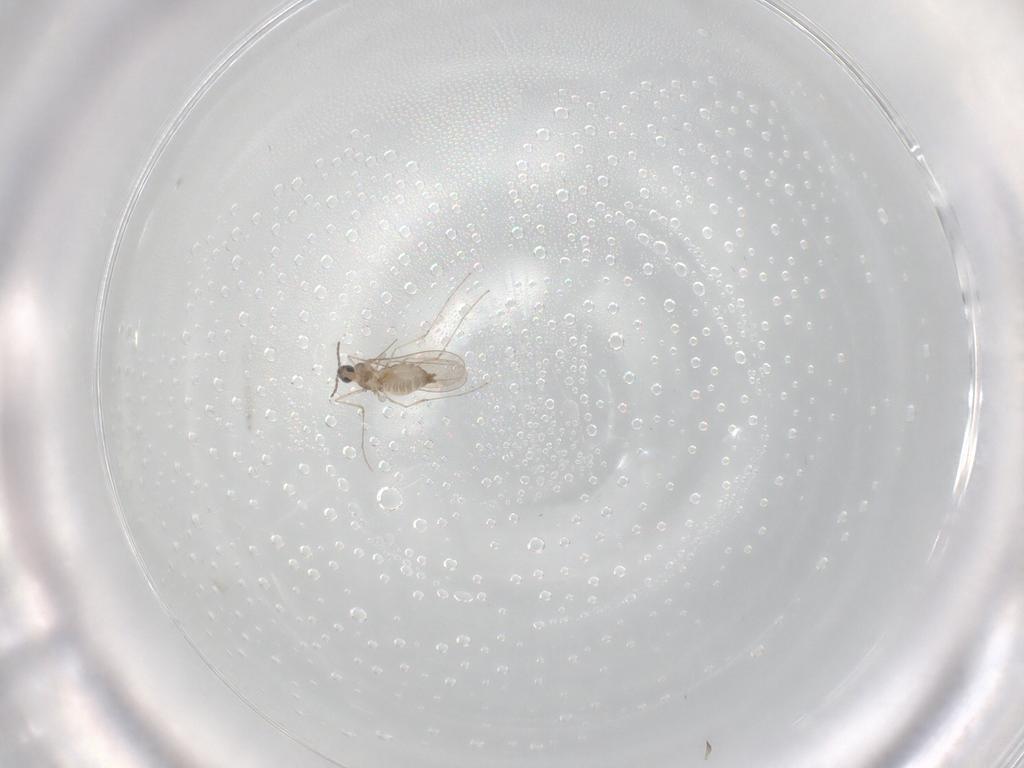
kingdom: Animalia
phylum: Arthropoda
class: Insecta
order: Diptera
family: Cecidomyiidae
